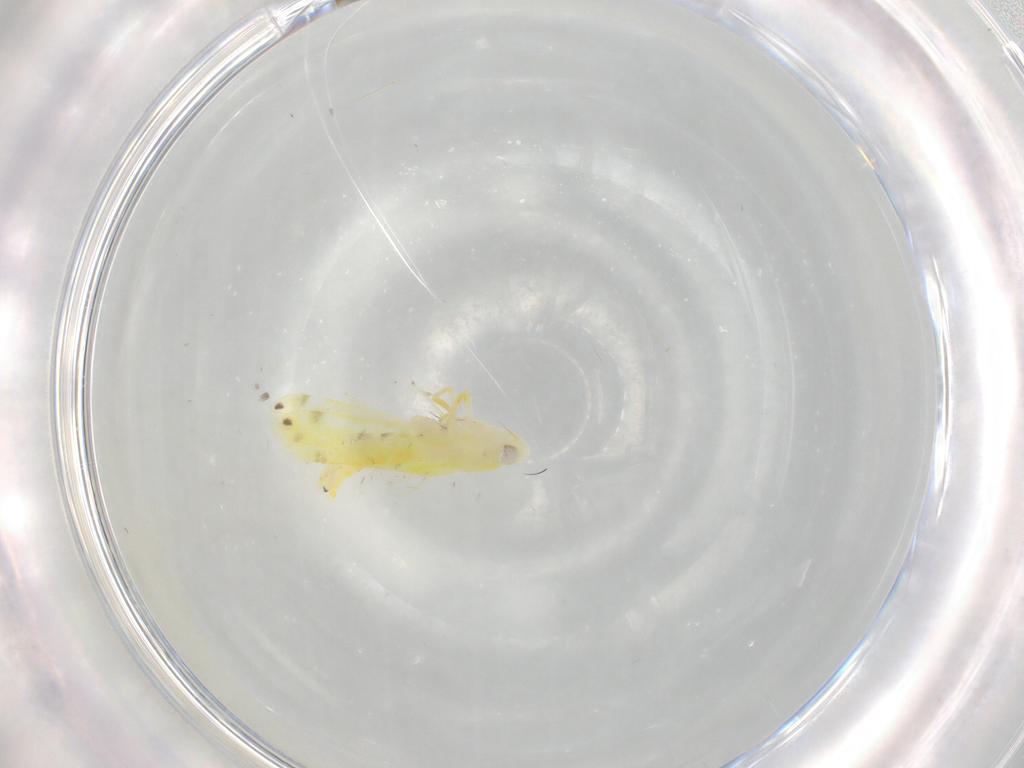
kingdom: Animalia
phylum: Arthropoda
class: Insecta
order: Hemiptera
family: Cicadellidae
